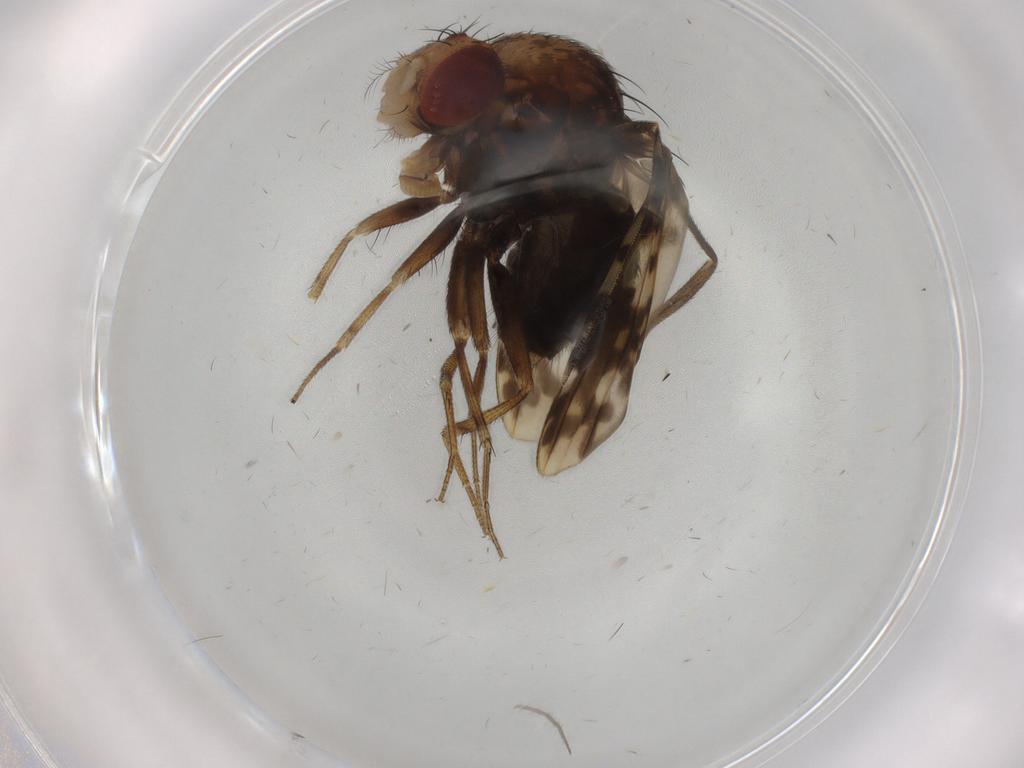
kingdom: Animalia
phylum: Arthropoda
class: Insecta
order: Diptera
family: Drosophilidae
